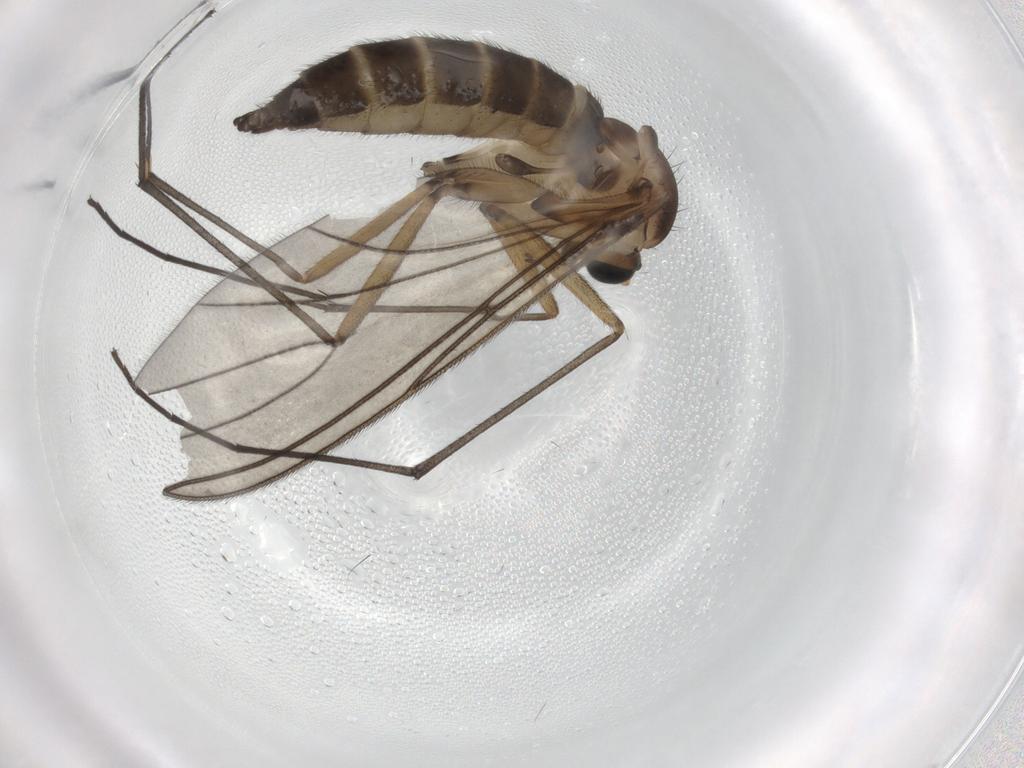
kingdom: Animalia
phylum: Arthropoda
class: Insecta
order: Diptera
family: Sciaridae
